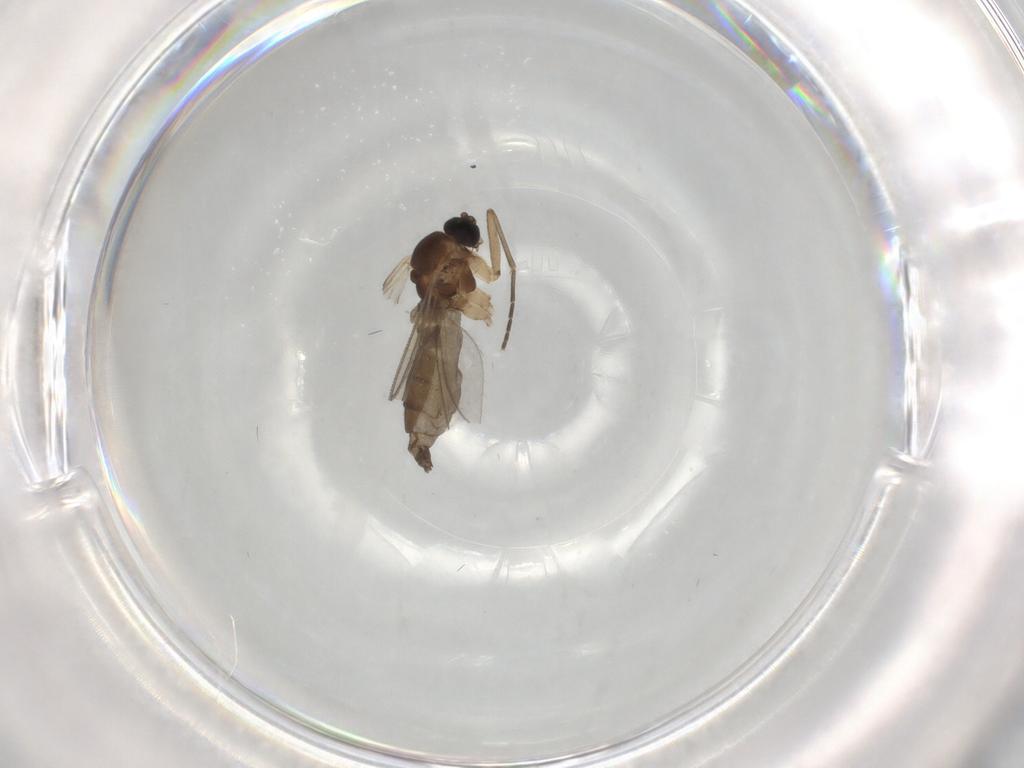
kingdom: Animalia
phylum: Arthropoda
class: Insecta
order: Diptera
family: Sciaridae
